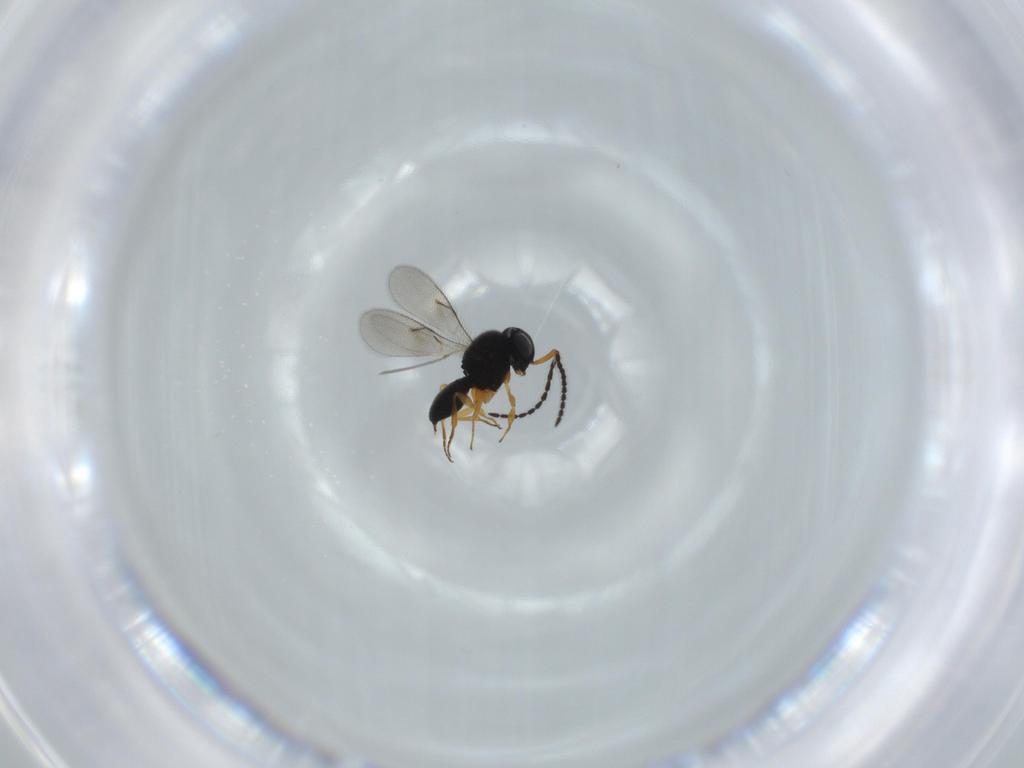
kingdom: Animalia
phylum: Arthropoda
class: Insecta
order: Hymenoptera
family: Scelionidae
